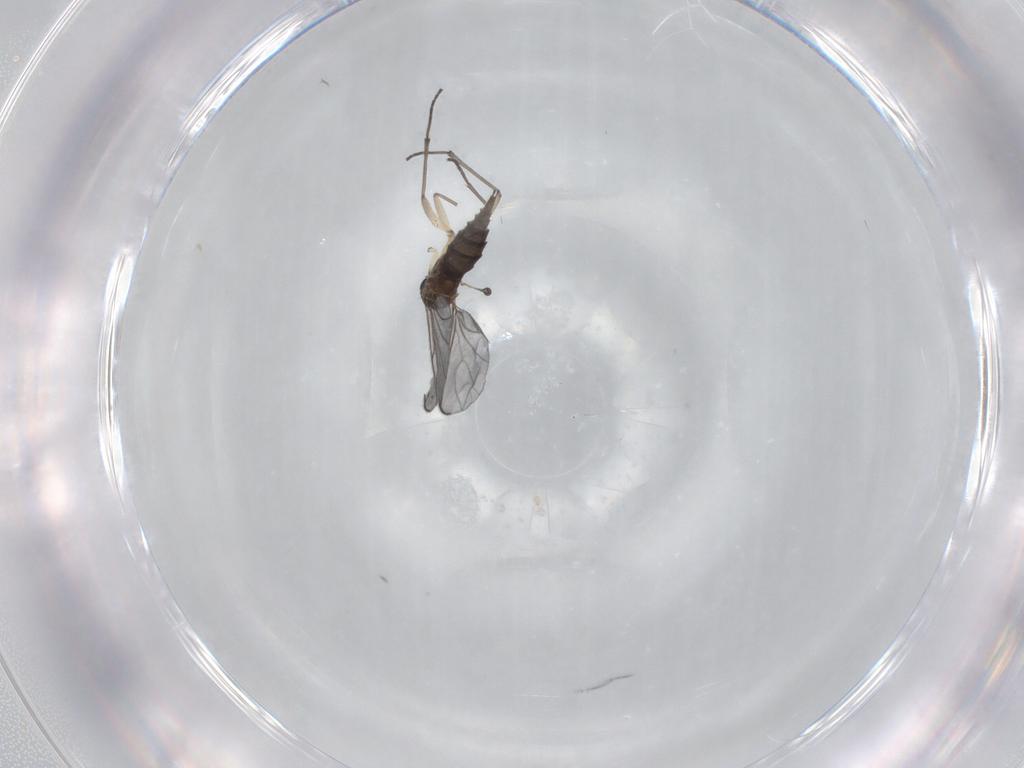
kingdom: Animalia
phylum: Arthropoda
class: Insecta
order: Diptera
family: Sciaridae
